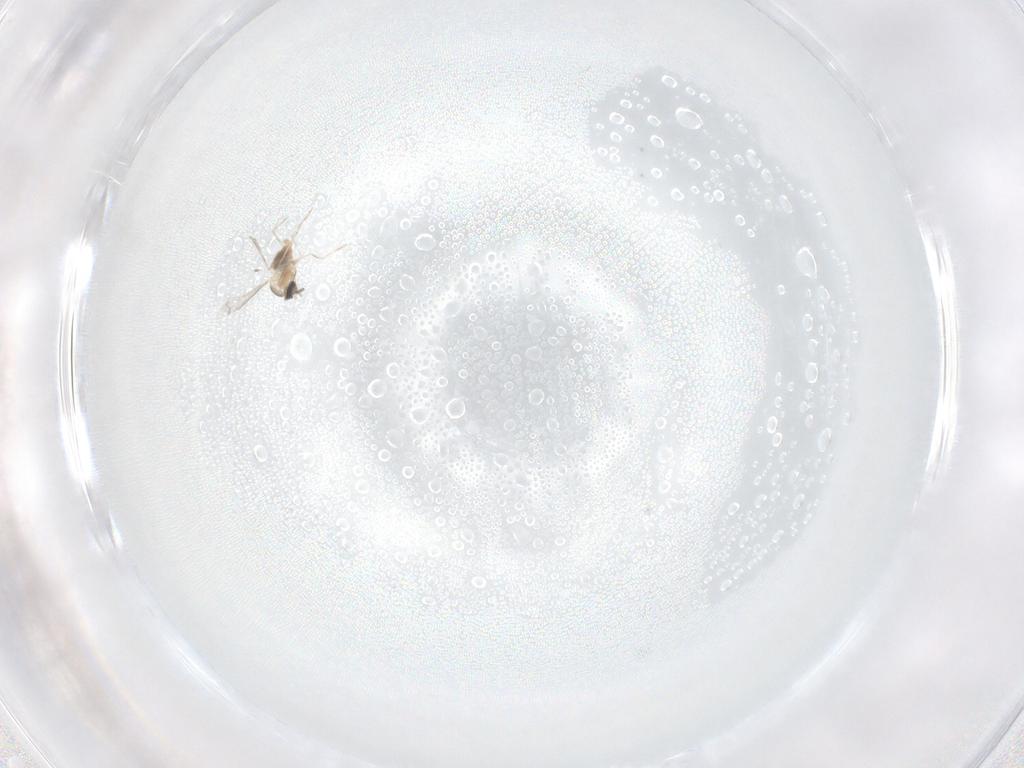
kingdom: Animalia
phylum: Arthropoda
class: Insecta
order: Diptera
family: Cecidomyiidae
